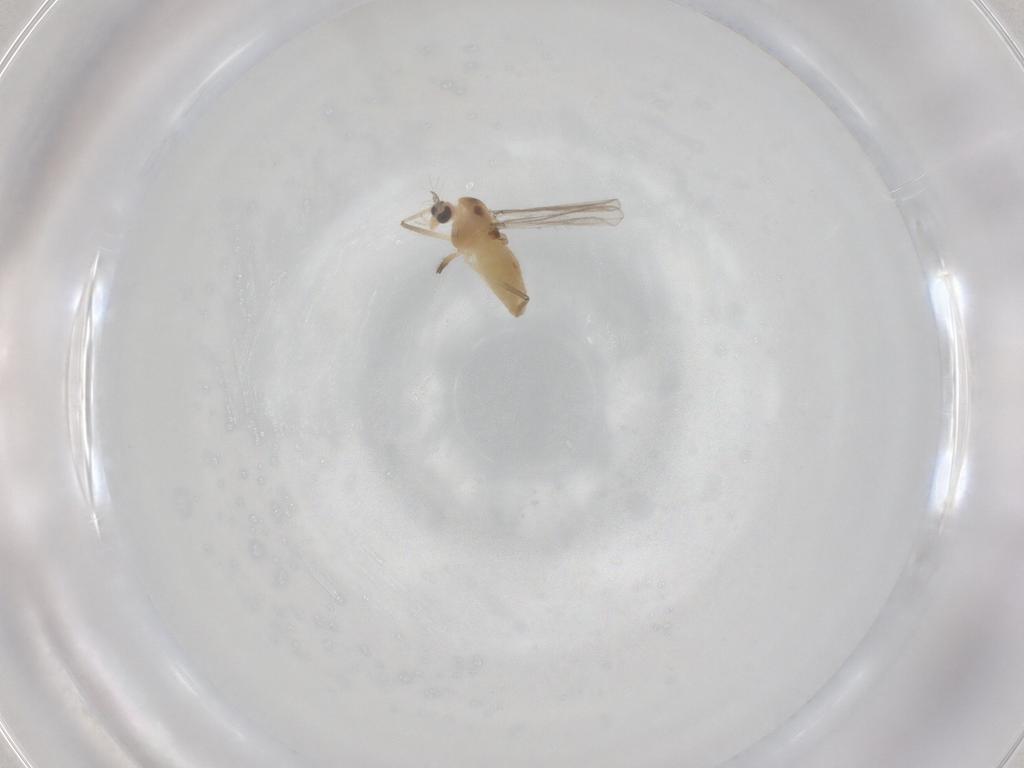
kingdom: Animalia
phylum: Arthropoda
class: Insecta
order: Diptera
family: Chironomidae
